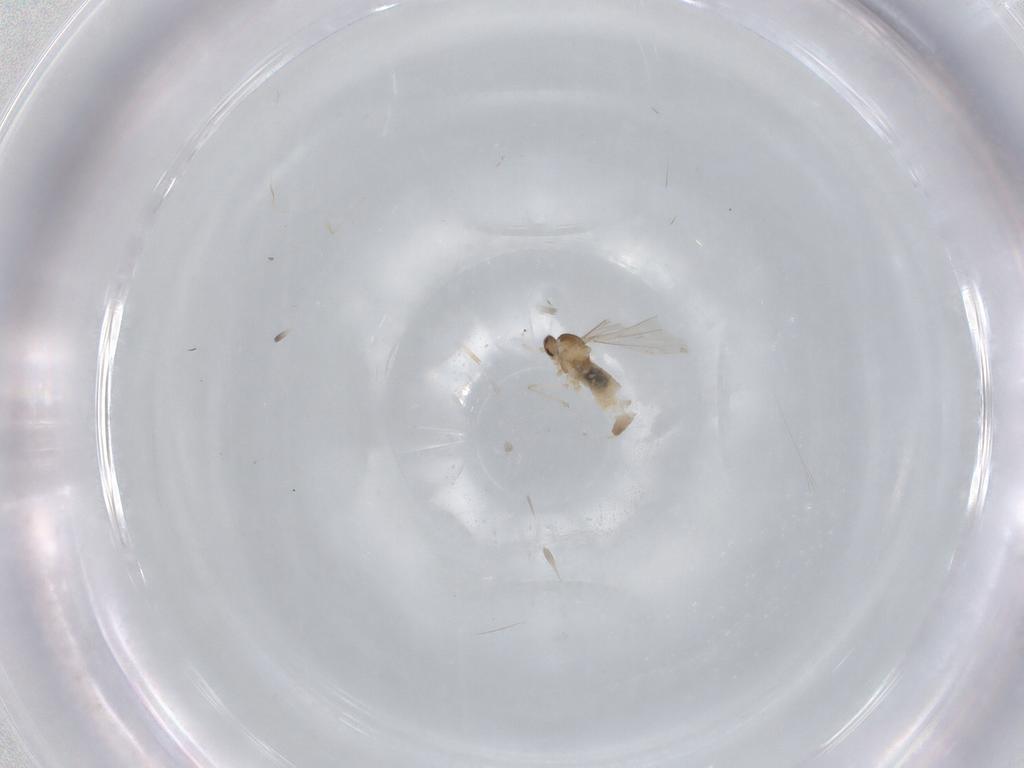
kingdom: Animalia
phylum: Arthropoda
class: Insecta
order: Diptera
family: Cecidomyiidae
